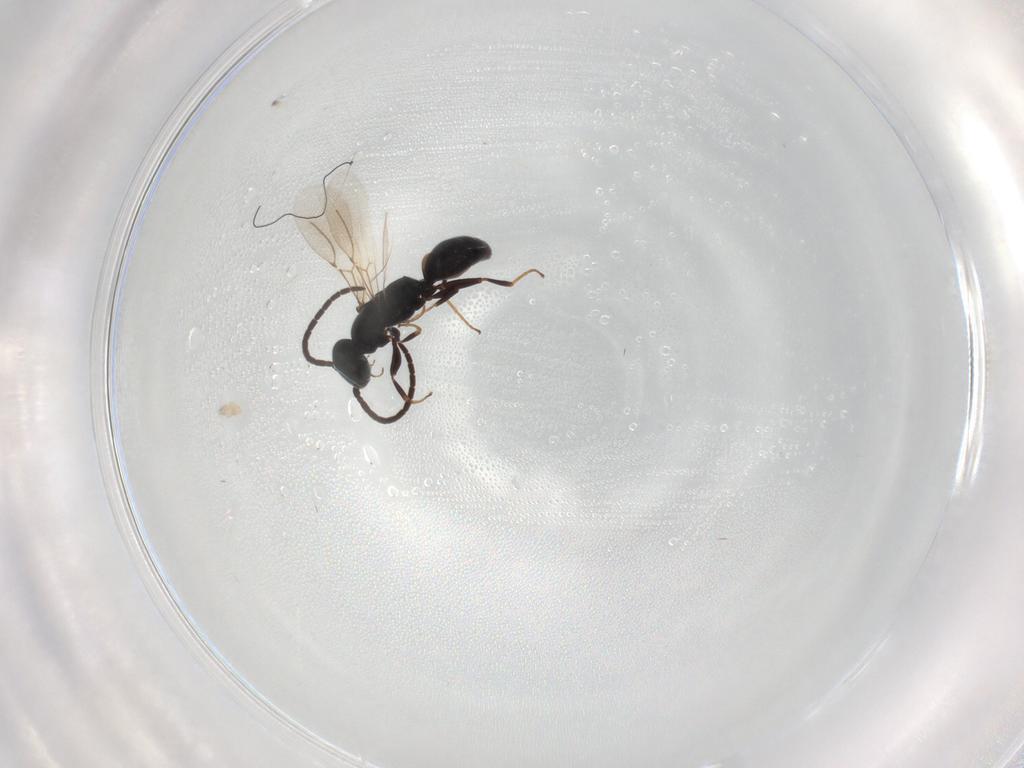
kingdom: Animalia
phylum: Arthropoda
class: Insecta
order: Hymenoptera
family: Bethylidae
